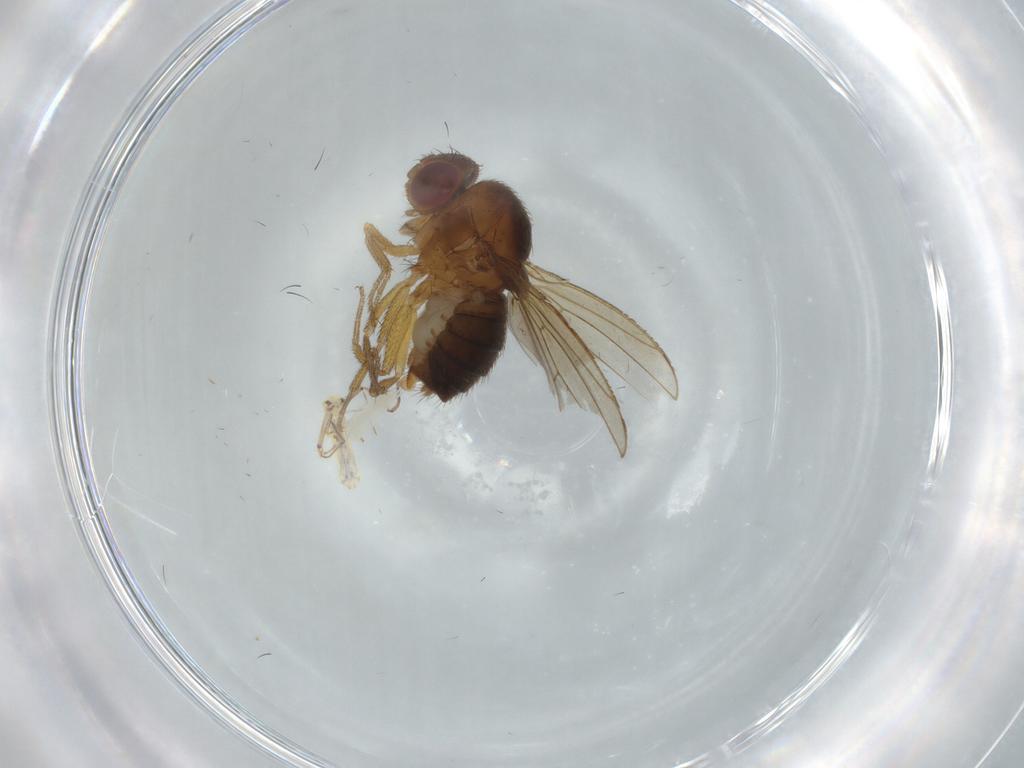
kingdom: Animalia
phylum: Arthropoda
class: Insecta
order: Diptera
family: Drosophilidae
